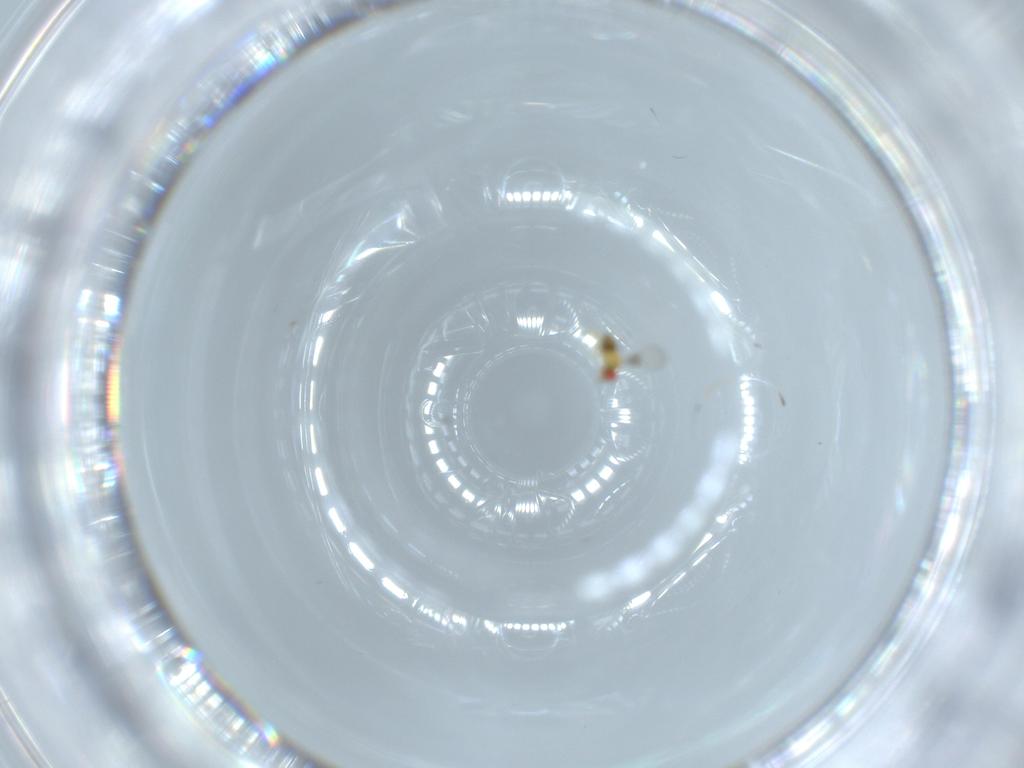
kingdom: Animalia
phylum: Arthropoda
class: Insecta
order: Hymenoptera
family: Trichogrammatidae
